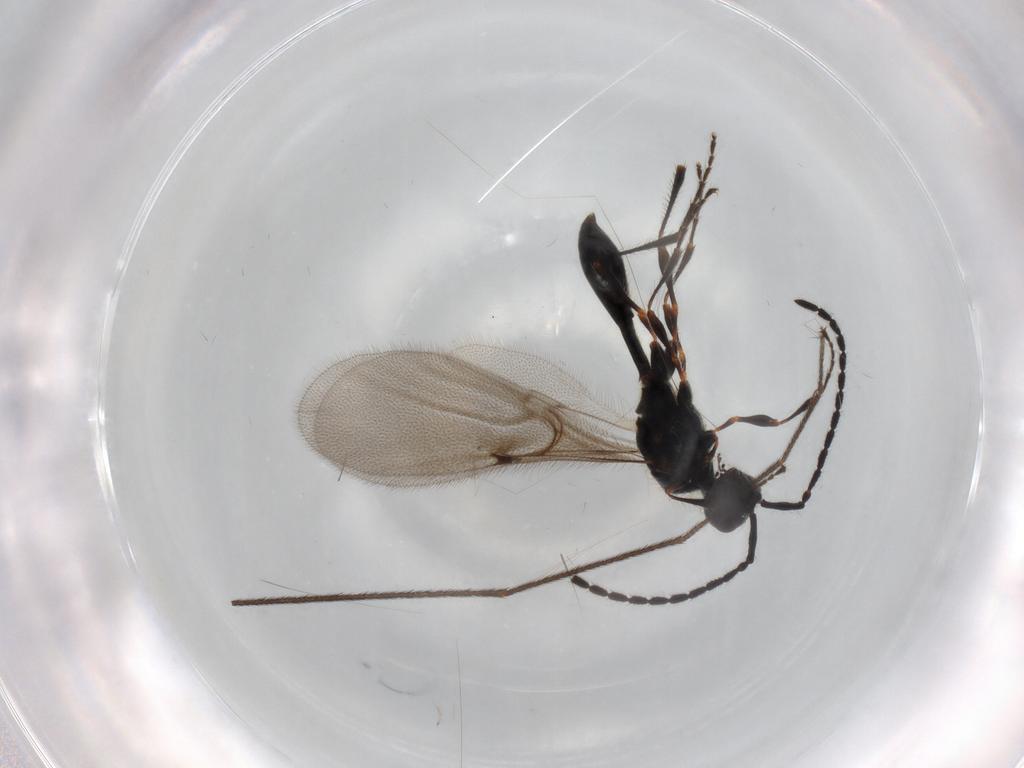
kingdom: Animalia
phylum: Arthropoda
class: Insecta
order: Hymenoptera
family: Diapriidae
